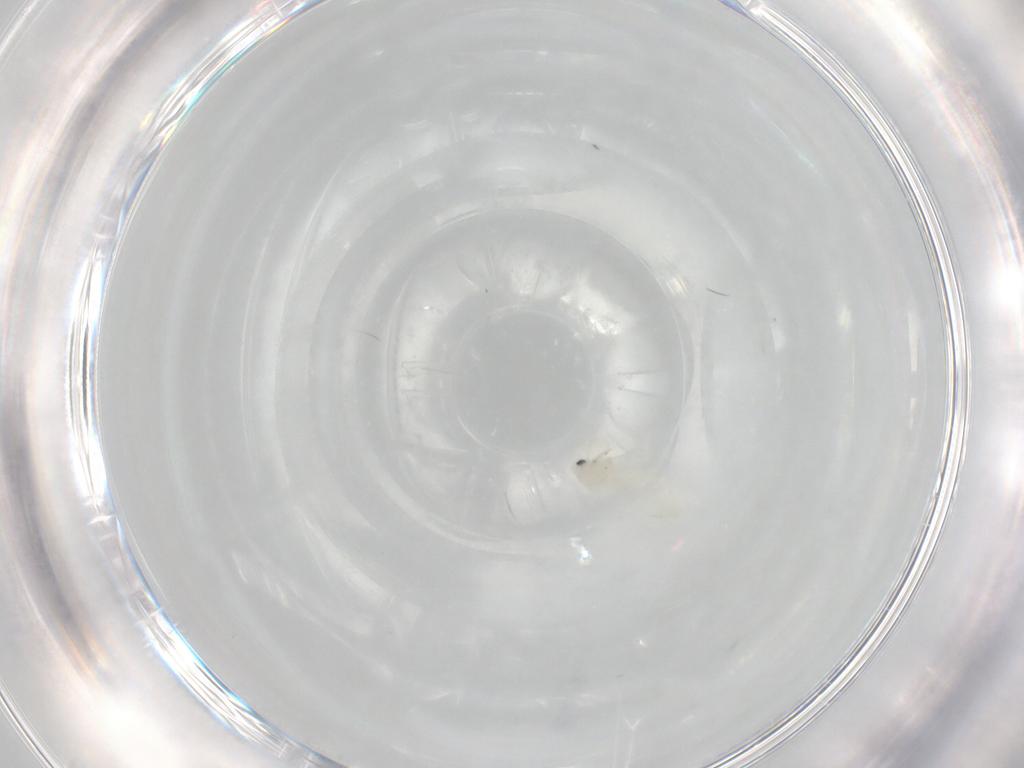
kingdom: Animalia
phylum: Arthropoda
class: Insecta
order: Hemiptera
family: Aleyrodidae
